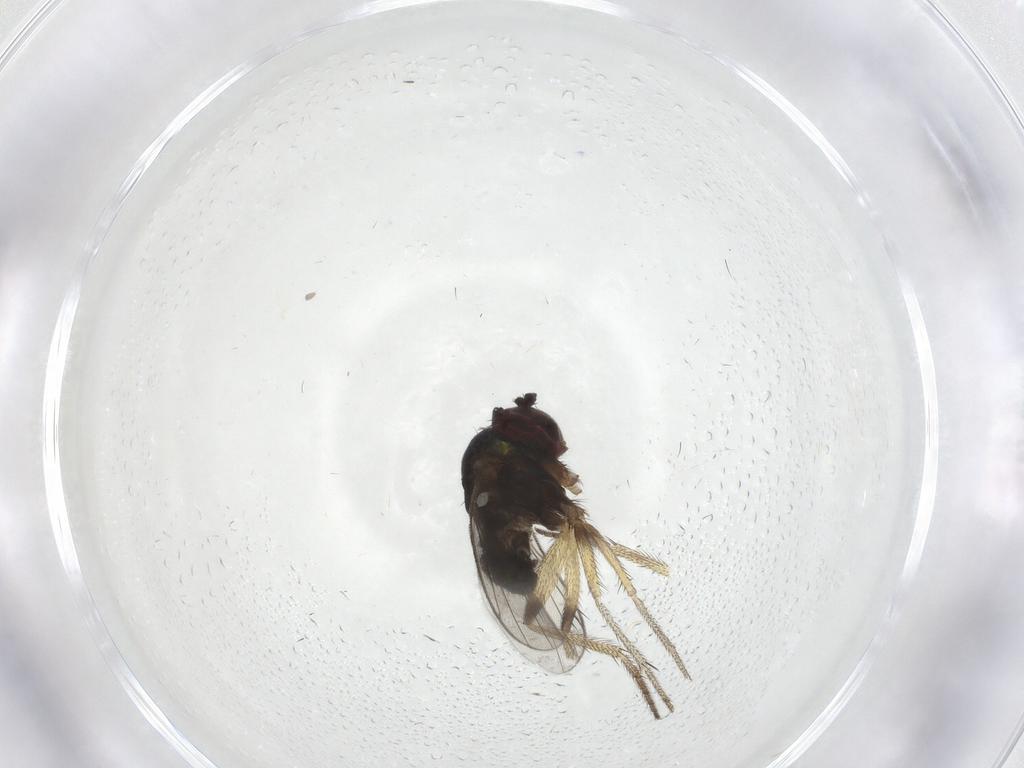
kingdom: Animalia
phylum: Arthropoda
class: Insecta
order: Diptera
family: Dolichopodidae
